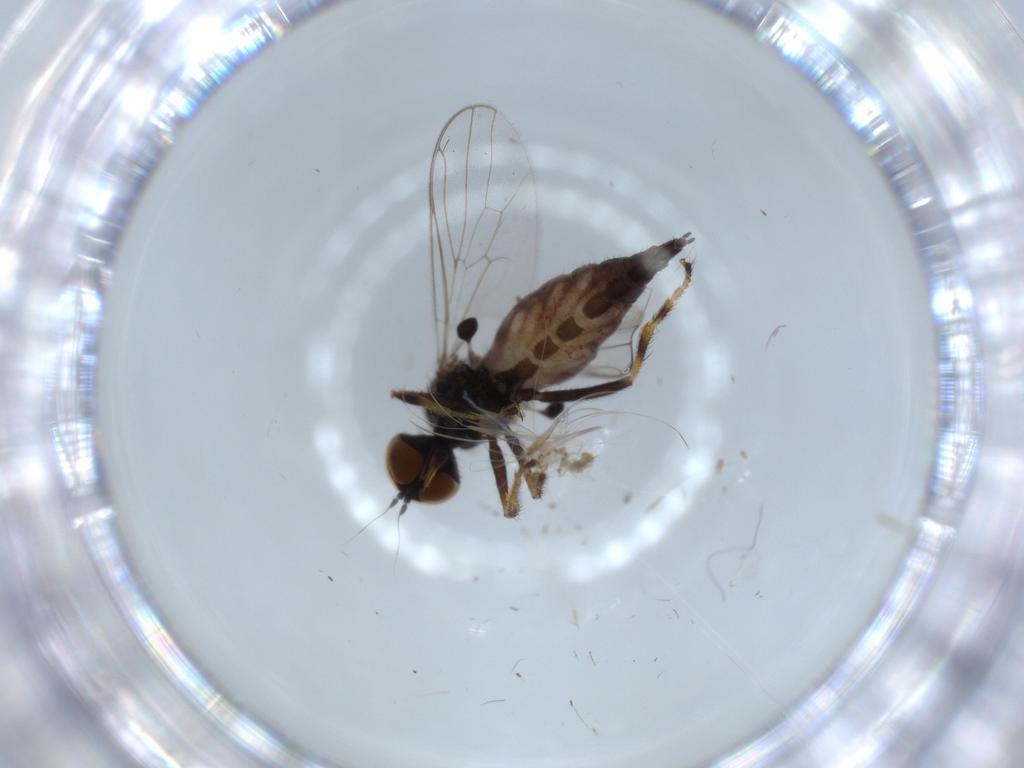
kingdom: Animalia
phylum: Arthropoda
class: Insecta
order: Diptera
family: Hybotidae
